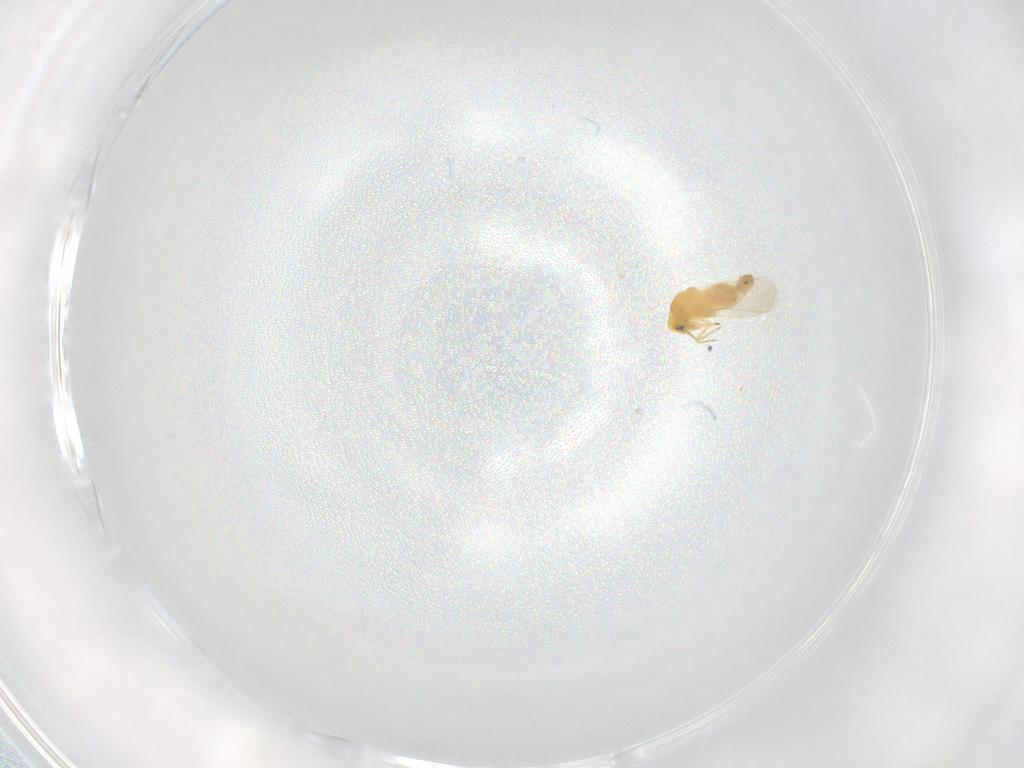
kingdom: Animalia
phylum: Arthropoda
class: Insecta
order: Hemiptera
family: Aleyrodidae
